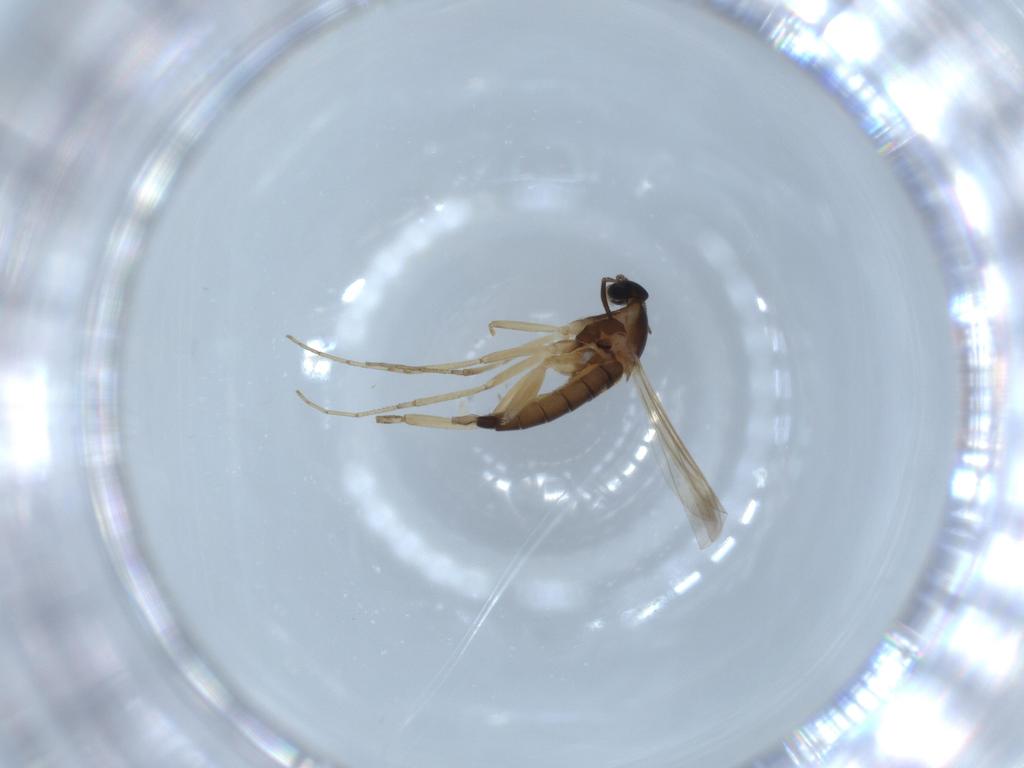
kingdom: Animalia
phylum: Arthropoda
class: Insecta
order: Diptera
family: Cecidomyiidae
